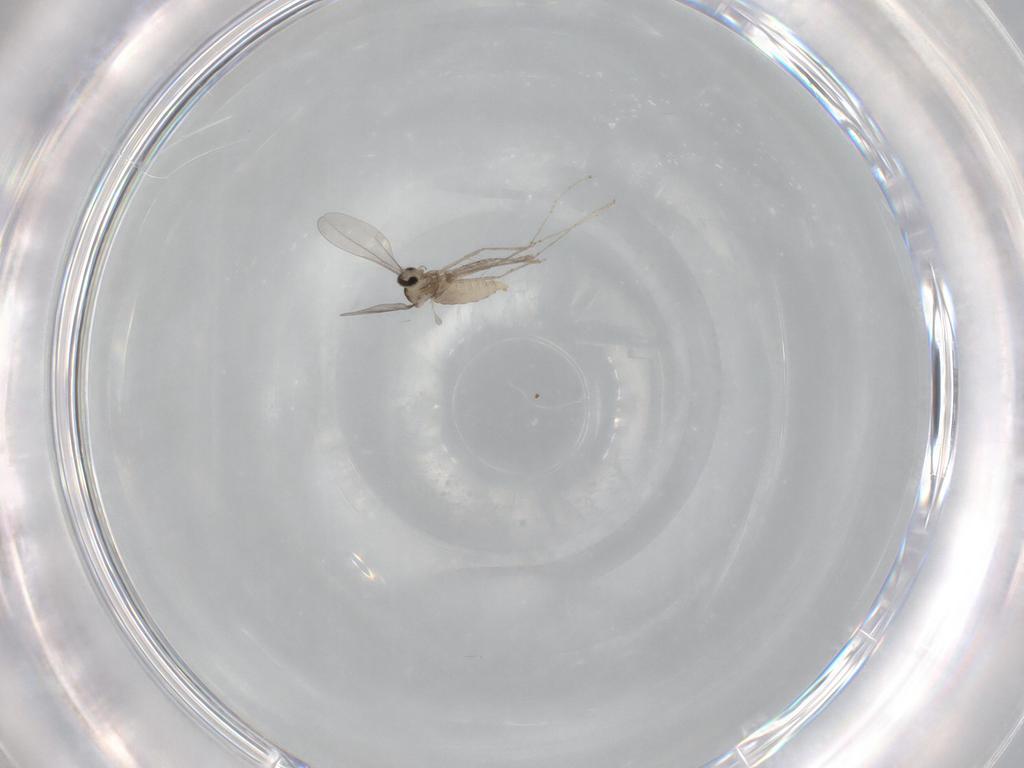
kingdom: Animalia
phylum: Arthropoda
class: Insecta
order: Diptera
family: Cecidomyiidae
